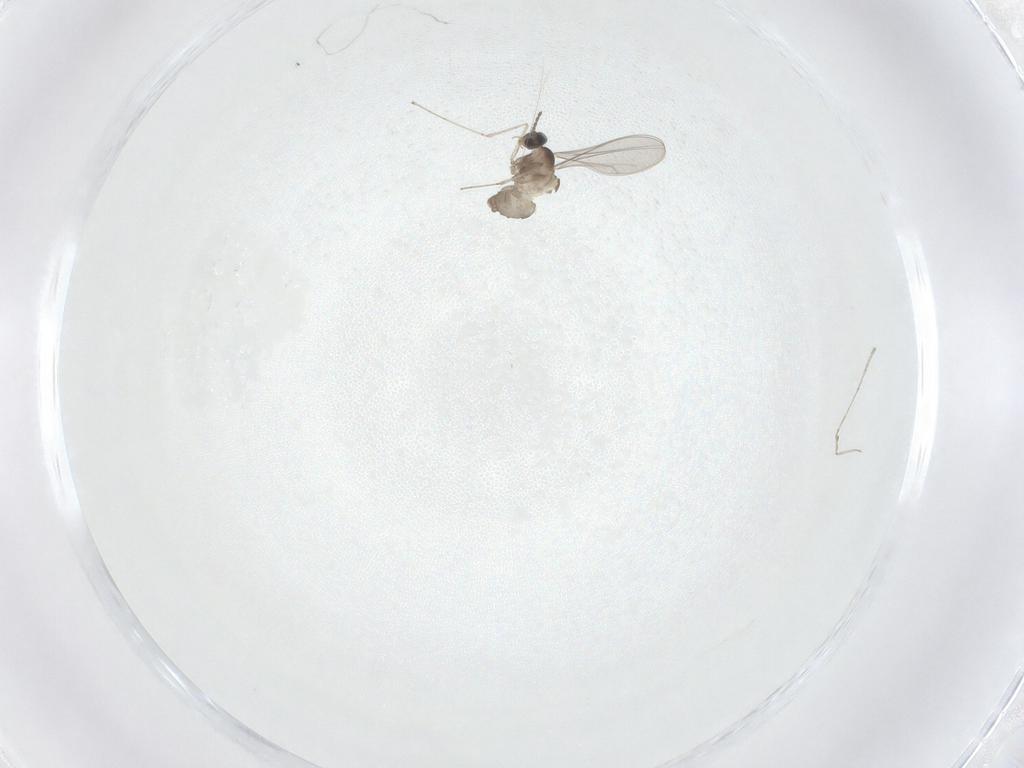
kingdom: Animalia
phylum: Arthropoda
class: Insecta
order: Diptera
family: Cecidomyiidae
